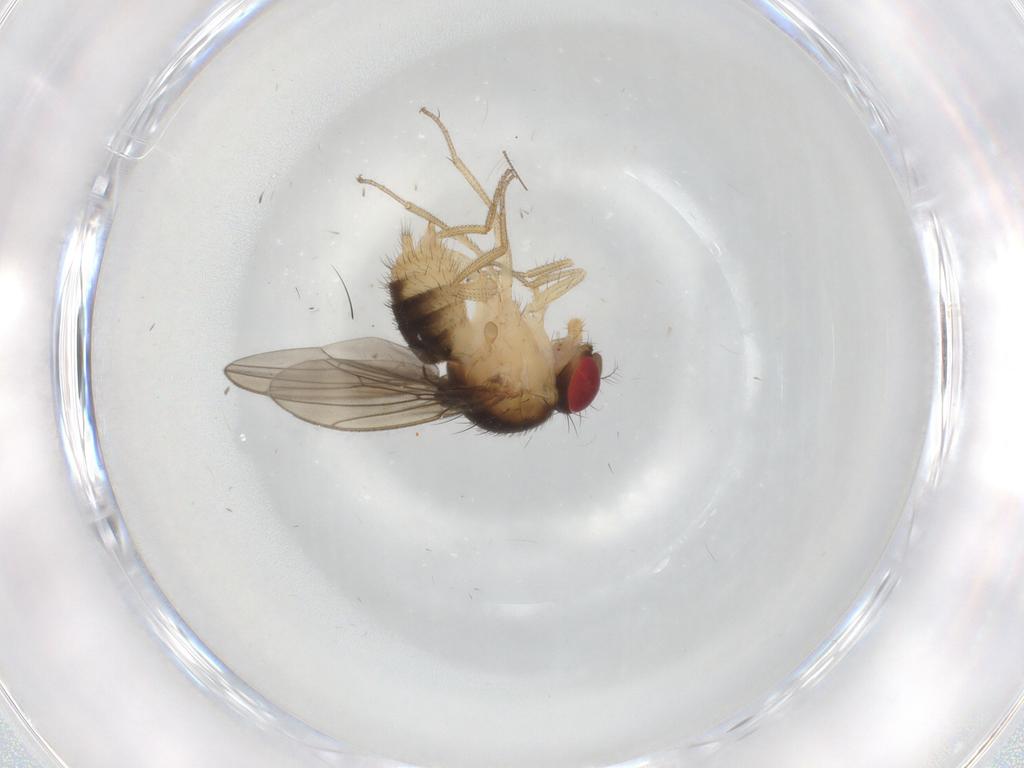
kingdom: Animalia
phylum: Arthropoda
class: Insecta
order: Diptera
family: Drosophilidae
